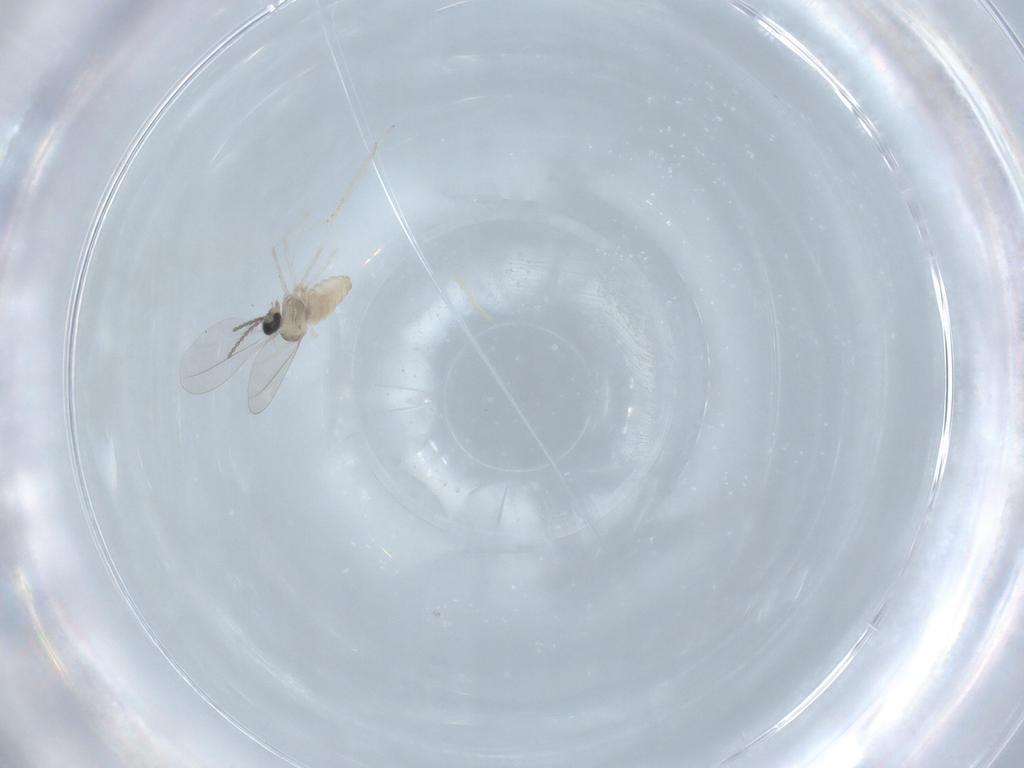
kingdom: Animalia
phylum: Arthropoda
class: Insecta
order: Diptera
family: Cecidomyiidae
